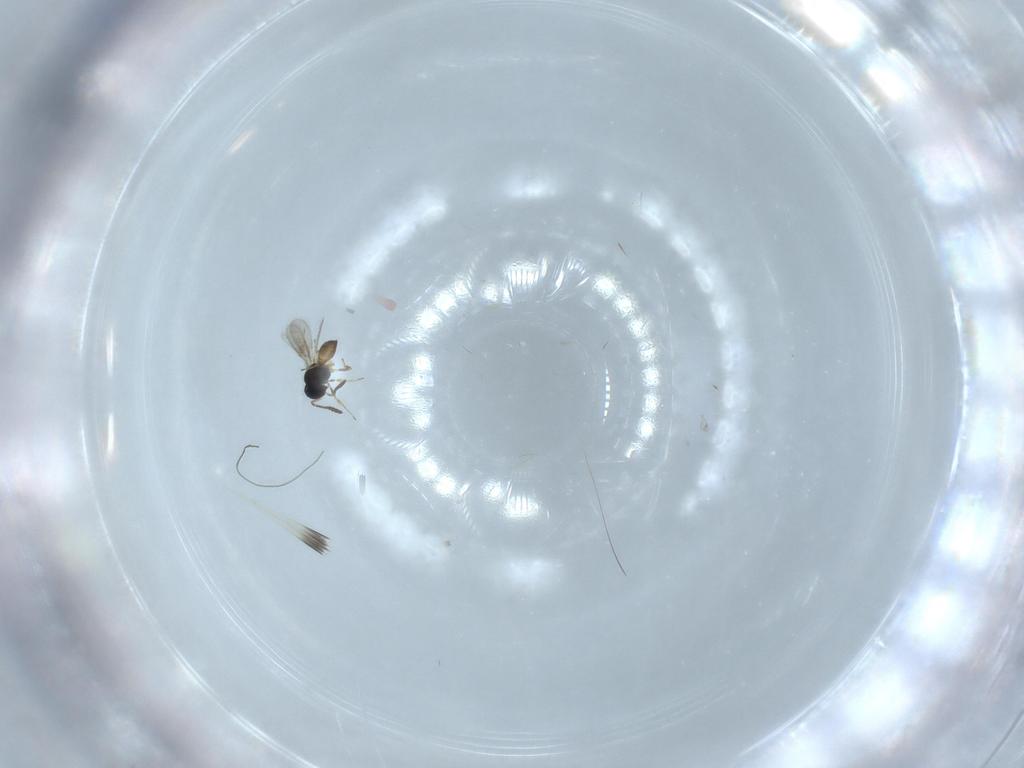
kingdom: Animalia
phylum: Arthropoda
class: Insecta
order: Hymenoptera
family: Scelionidae
